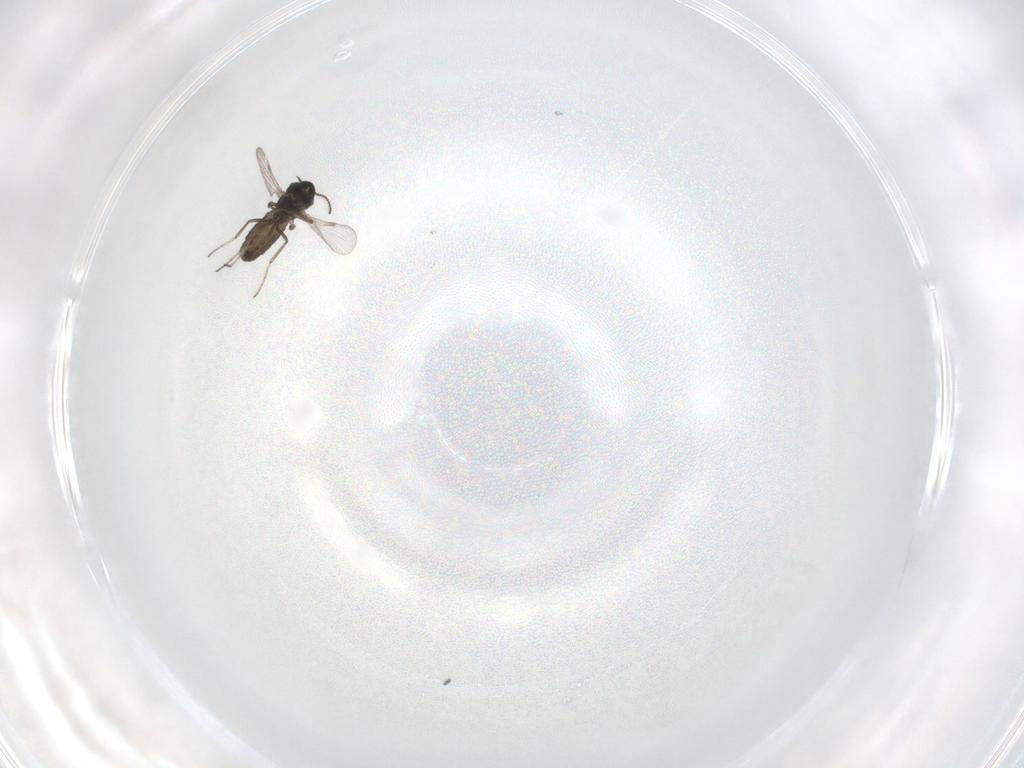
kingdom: Animalia
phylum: Arthropoda
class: Insecta
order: Diptera
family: Ceratopogonidae
